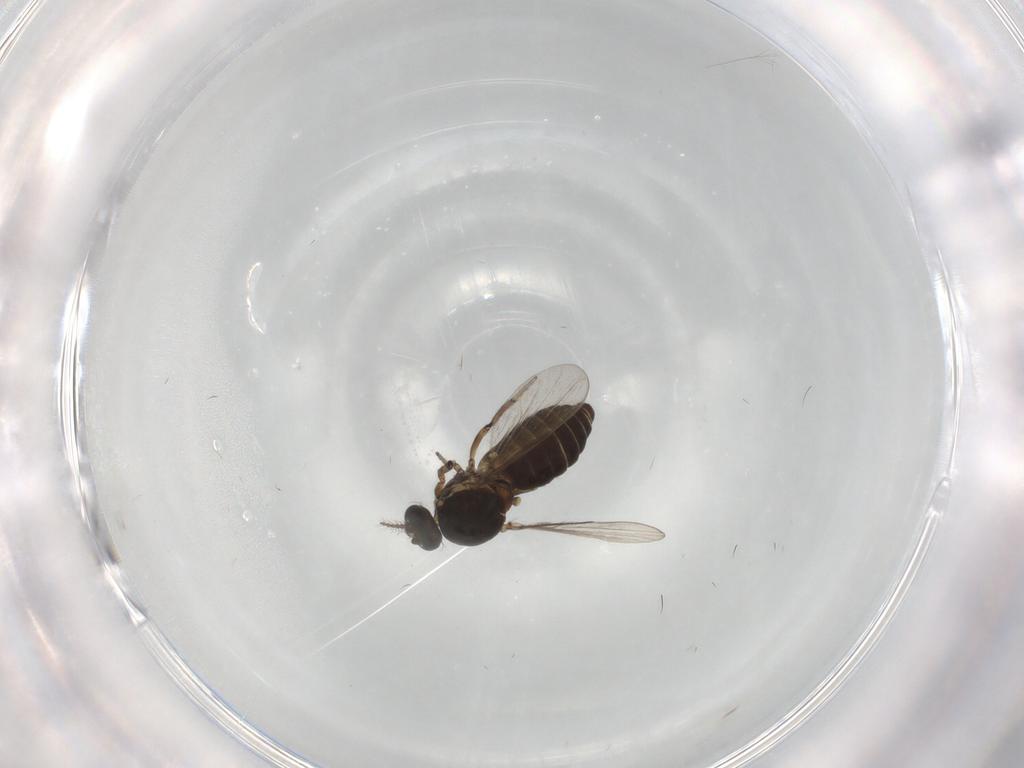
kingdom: Animalia
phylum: Arthropoda
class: Insecta
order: Diptera
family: Ceratopogonidae
